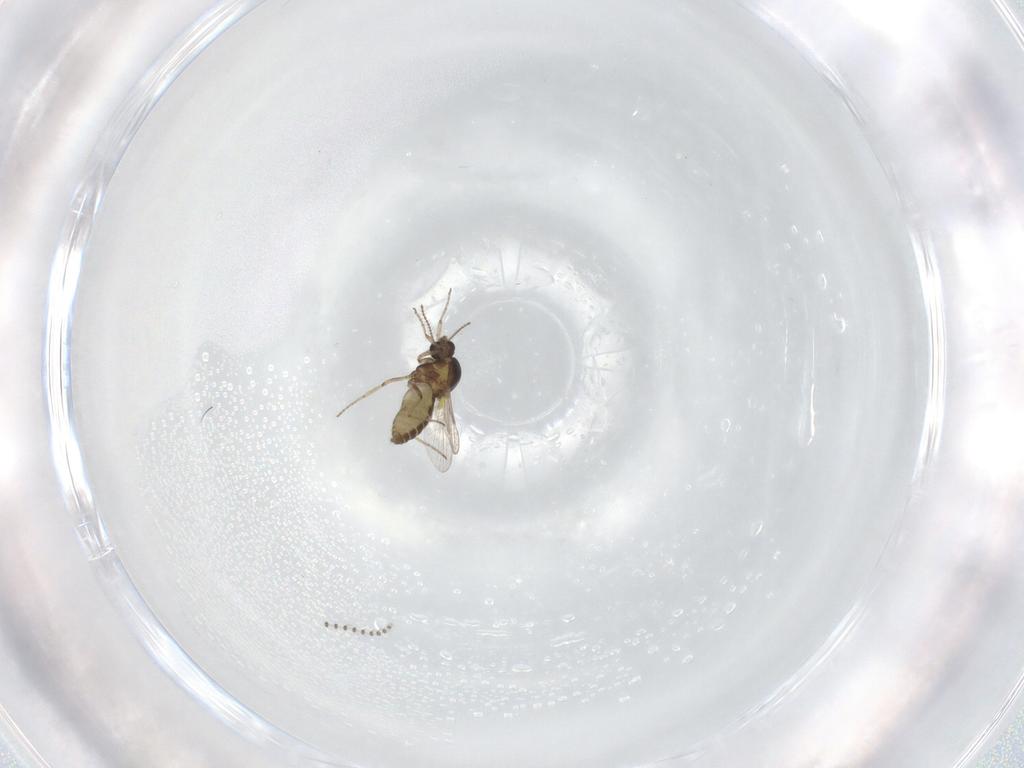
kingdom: Animalia
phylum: Arthropoda
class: Insecta
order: Diptera
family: Ceratopogonidae
